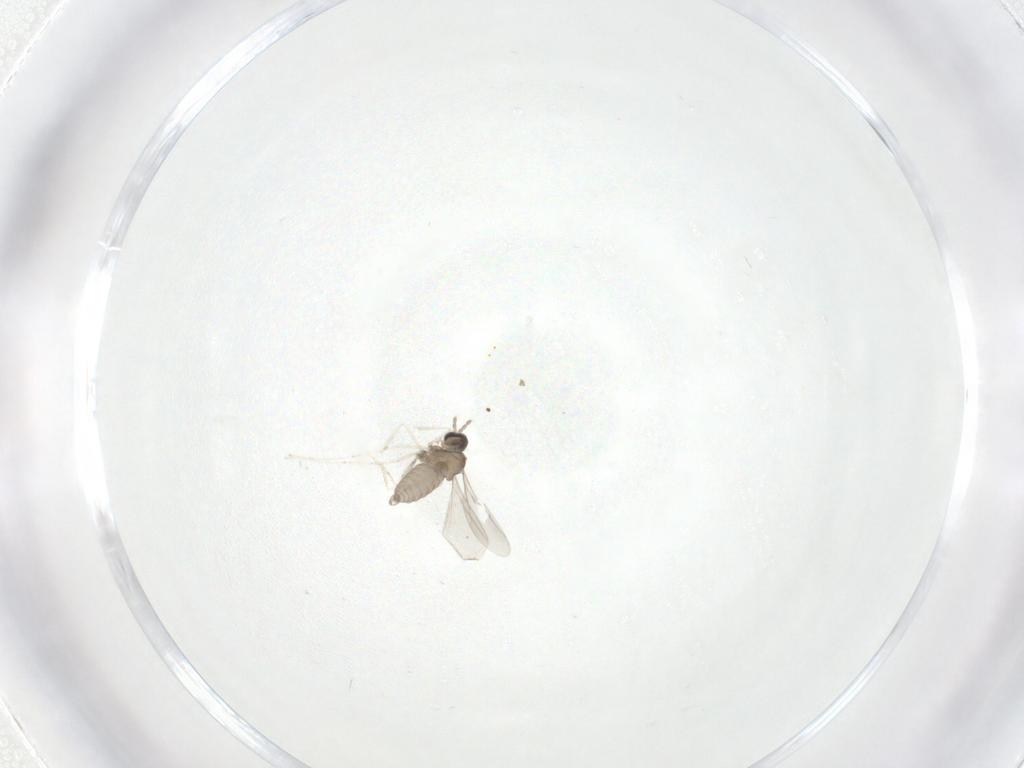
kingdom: Animalia
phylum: Arthropoda
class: Insecta
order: Diptera
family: Cecidomyiidae
